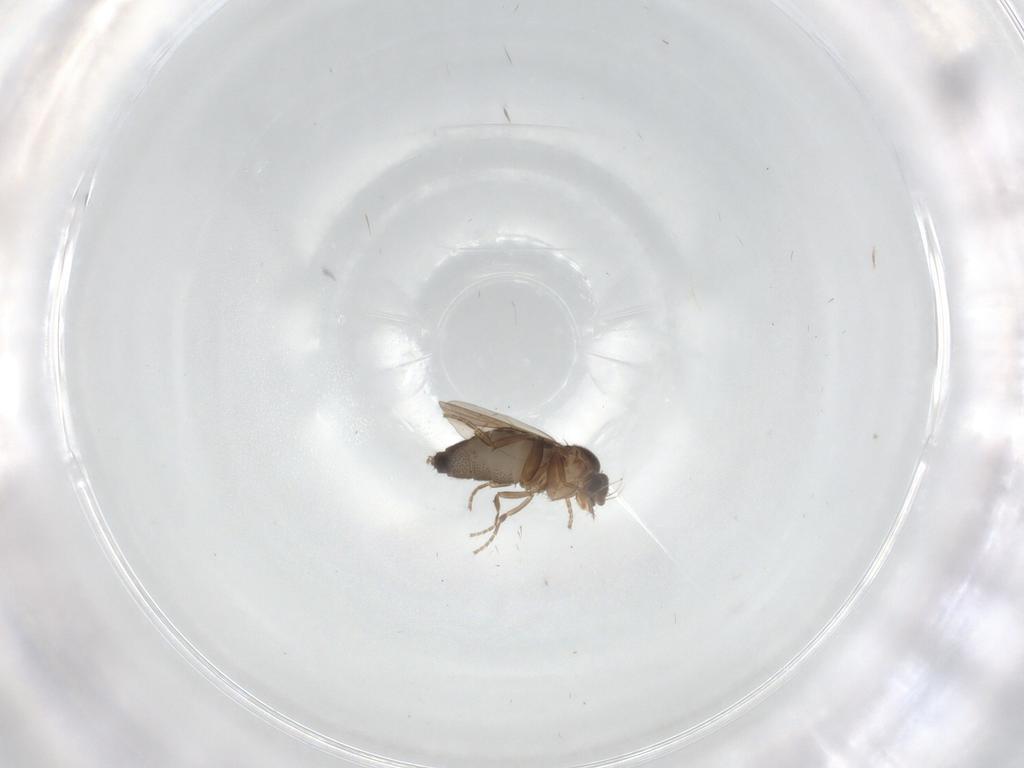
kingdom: Animalia
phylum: Arthropoda
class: Insecta
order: Diptera
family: Phoridae
